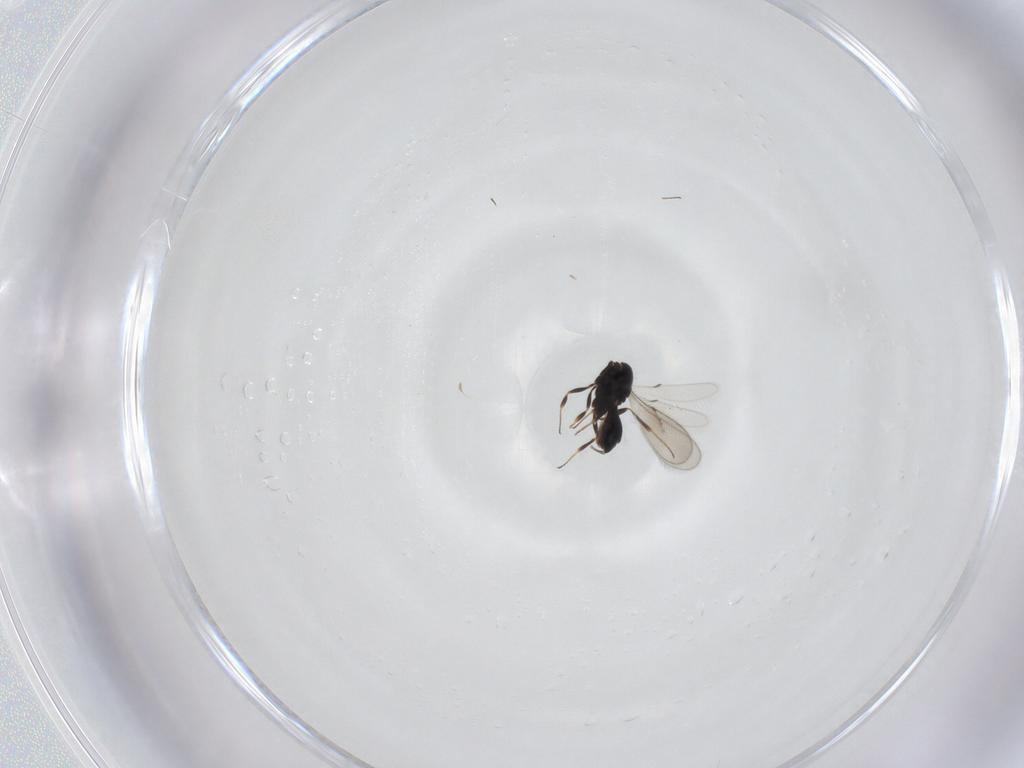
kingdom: Animalia
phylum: Arthropoda
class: Insecta
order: Hymenoptera
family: Scelionidae
